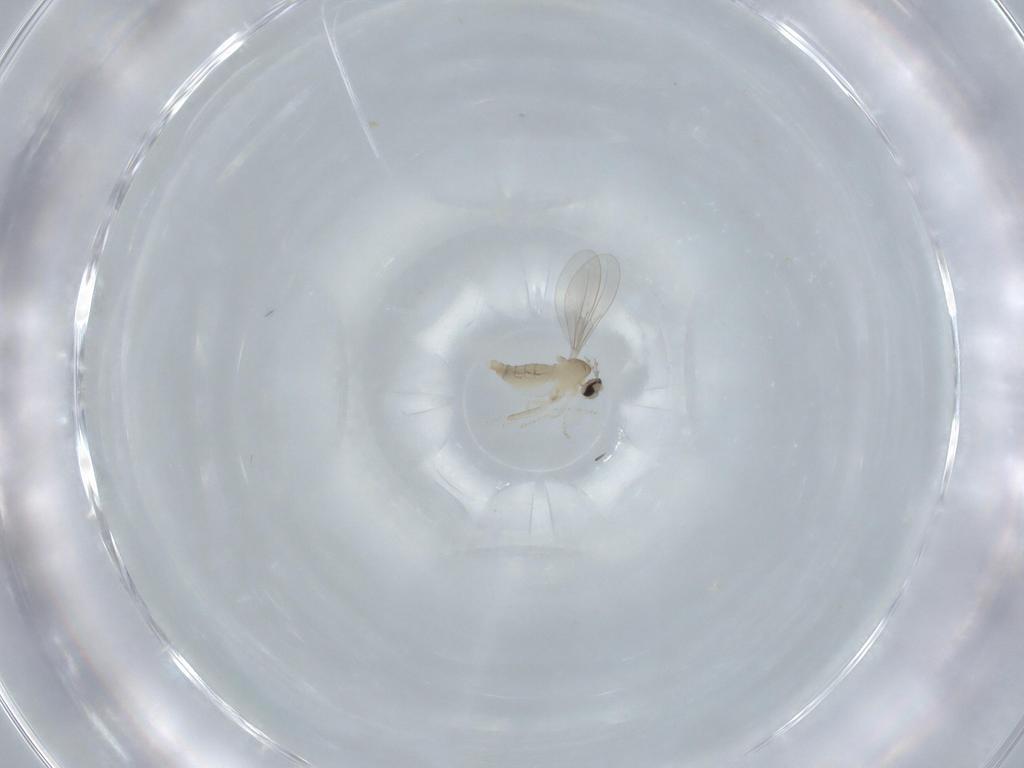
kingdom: Animalia
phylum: Arthropoda
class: Insecta
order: Diptera
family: Cecidomyiidae
